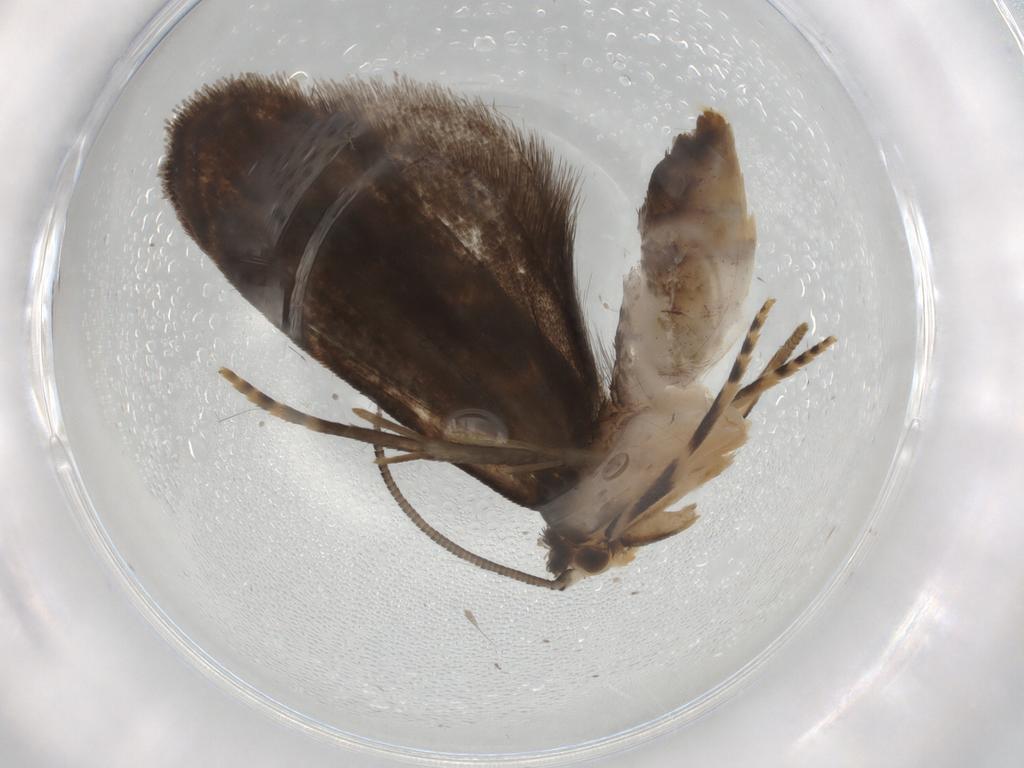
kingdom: Animalia
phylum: Arthropoda
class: Insecta
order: Lepidoptera
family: Dryadaulidae
